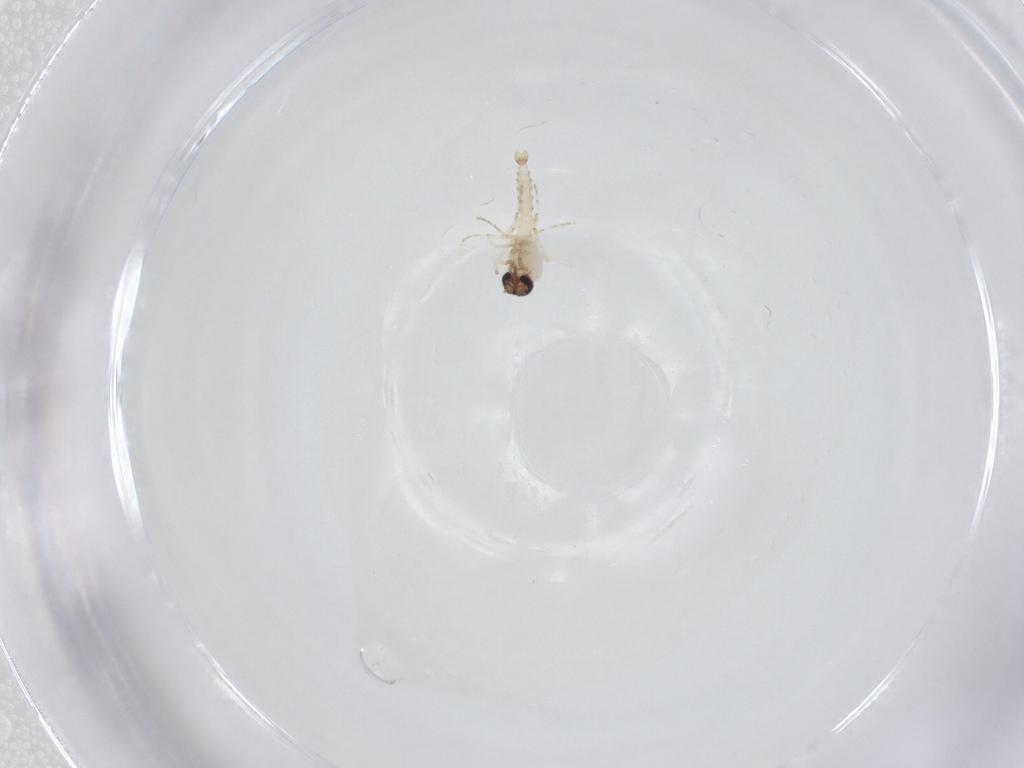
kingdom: Animalia
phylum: Arthropoda
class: Insecta
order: Diptera
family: Ceratopogonidae
